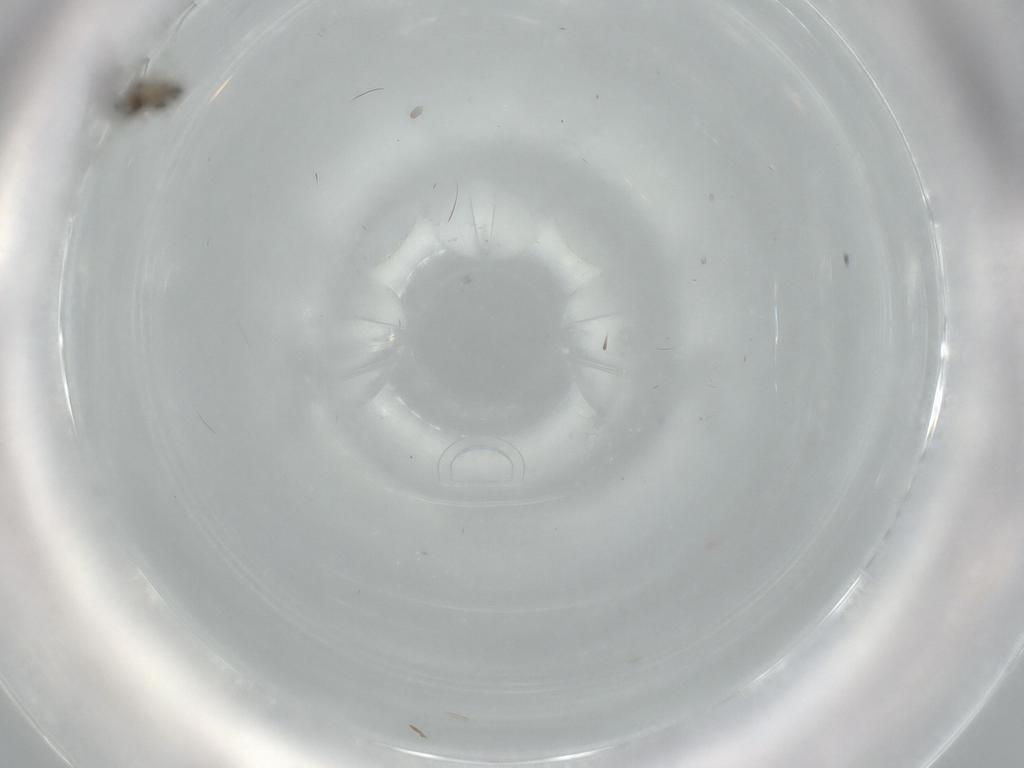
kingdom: Animalia
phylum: Arthropoda
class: Insecta
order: Diptera
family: Cecidomyiidae
